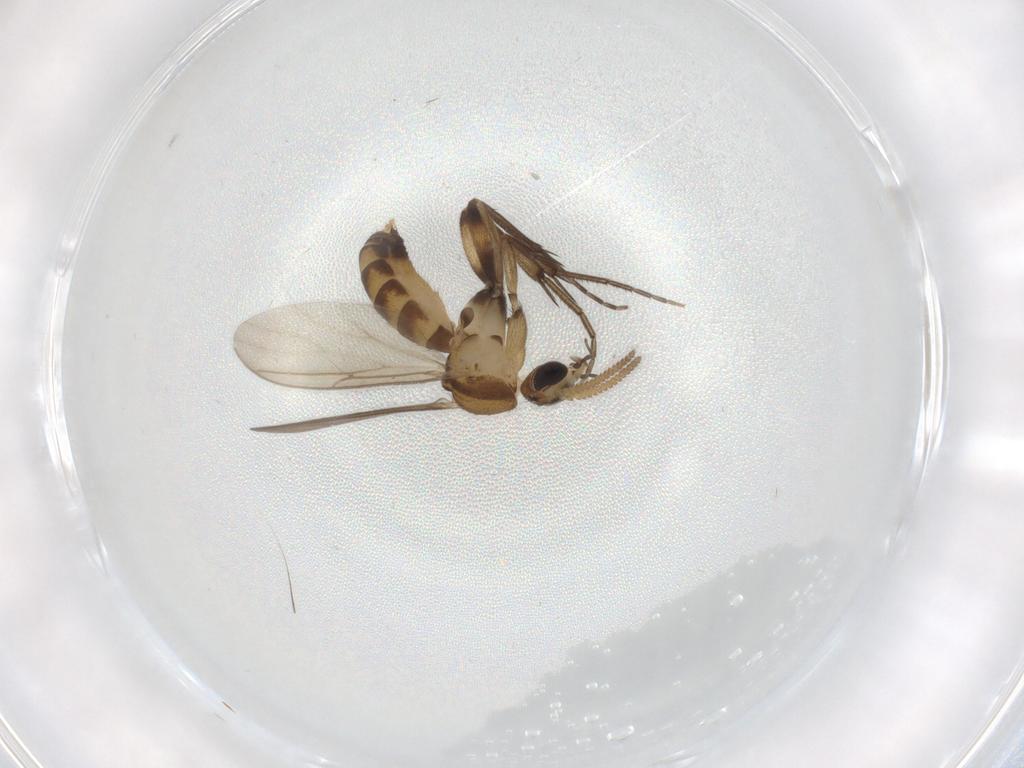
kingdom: Animalia
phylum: Arthropoda
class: Insecta
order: Diptera
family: Mycetophilidae
